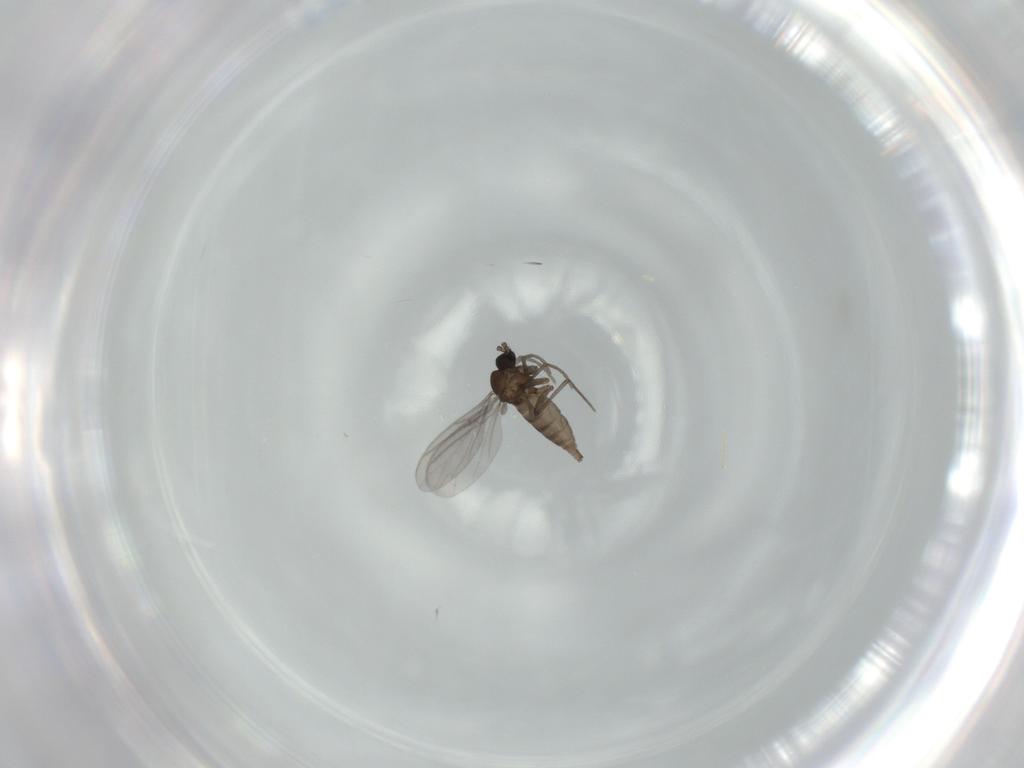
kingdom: Animalia
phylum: Arthropoda
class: Insecta
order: Diptera
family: Sciaridae
